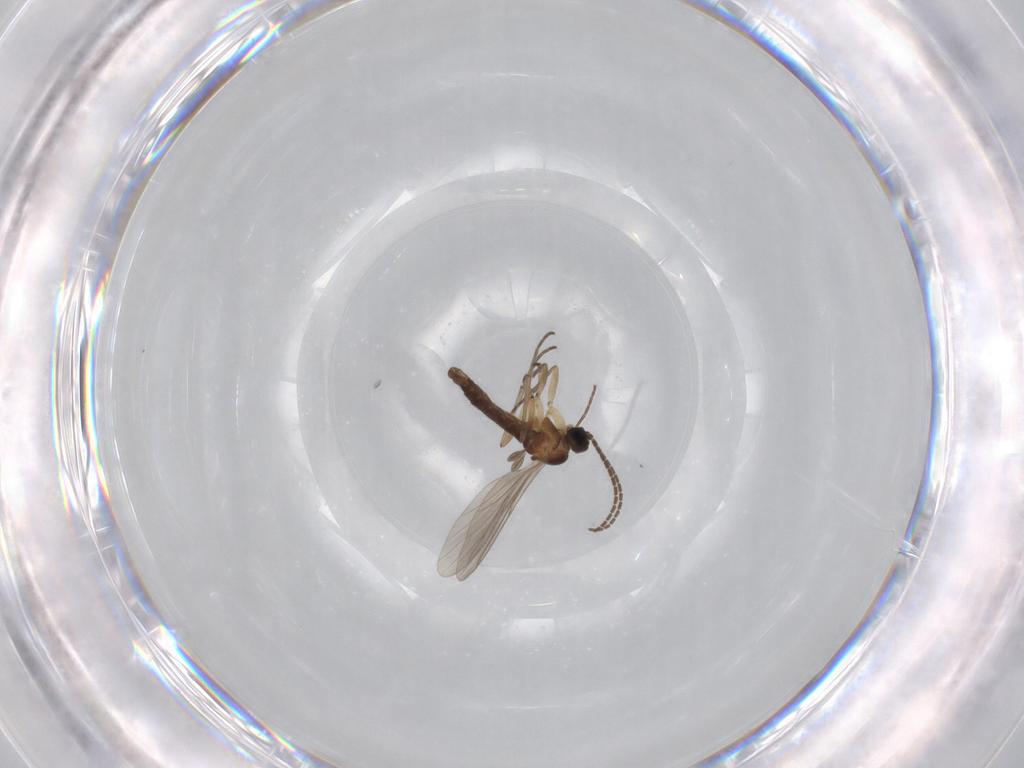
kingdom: Animalia
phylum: Arthropoda
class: Insecta
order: Diptera
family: Sciaridae
